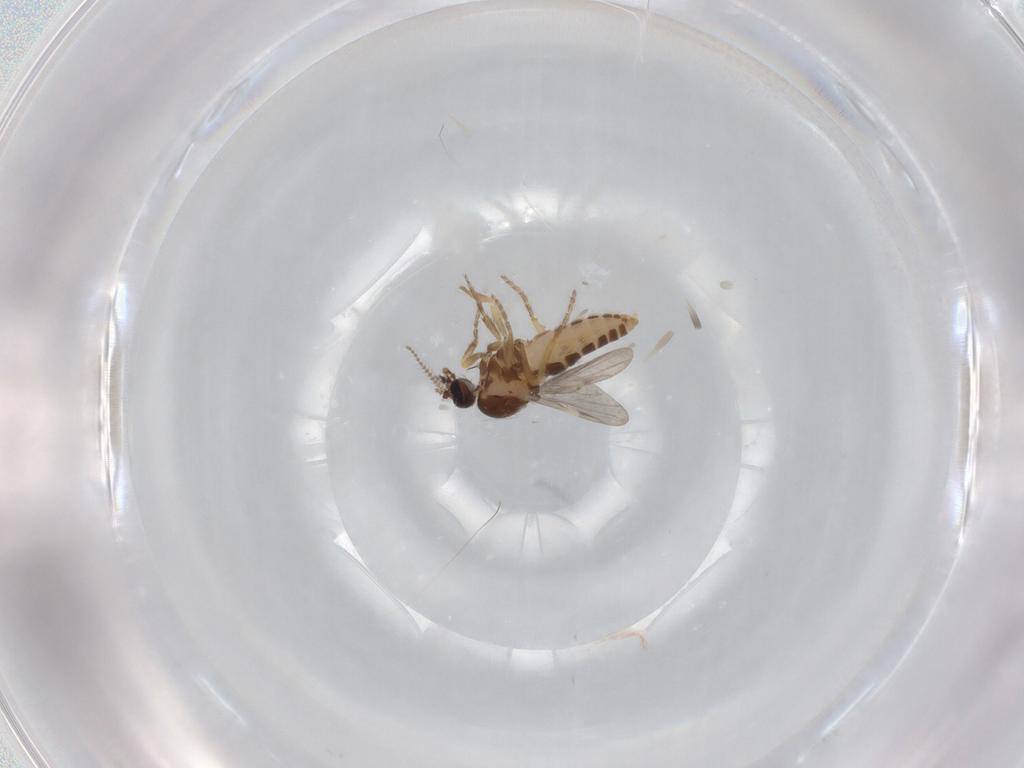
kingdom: Animalia
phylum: Arthropoda
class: Insecta
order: Diptera
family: Ceratopogonidae
